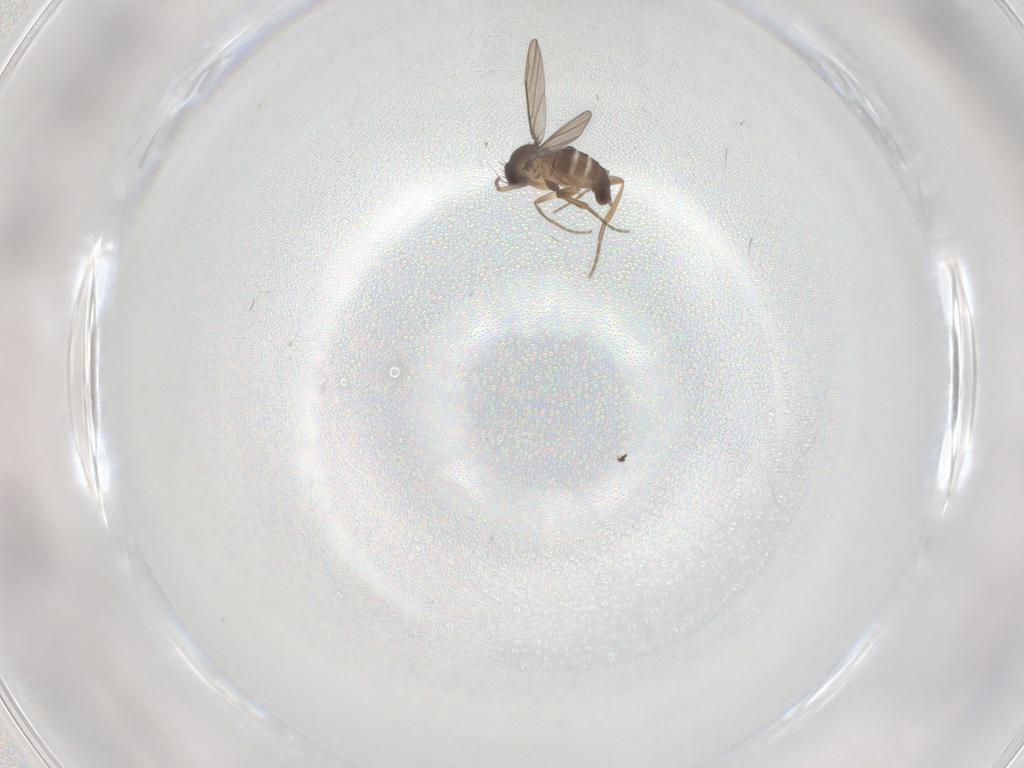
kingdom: Animalia
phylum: Arthropoda
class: Insecta
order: Diptera
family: Phoridae
